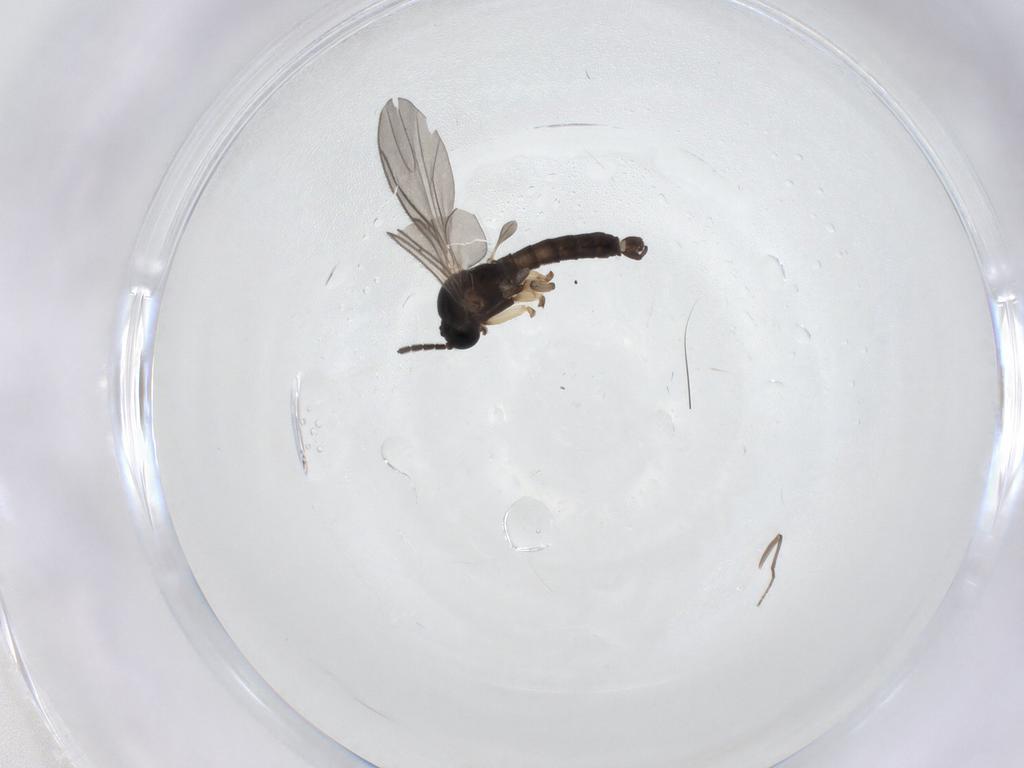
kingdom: Animalia
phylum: Arthropoda
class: Insecta
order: Diptera
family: Sciaridae
